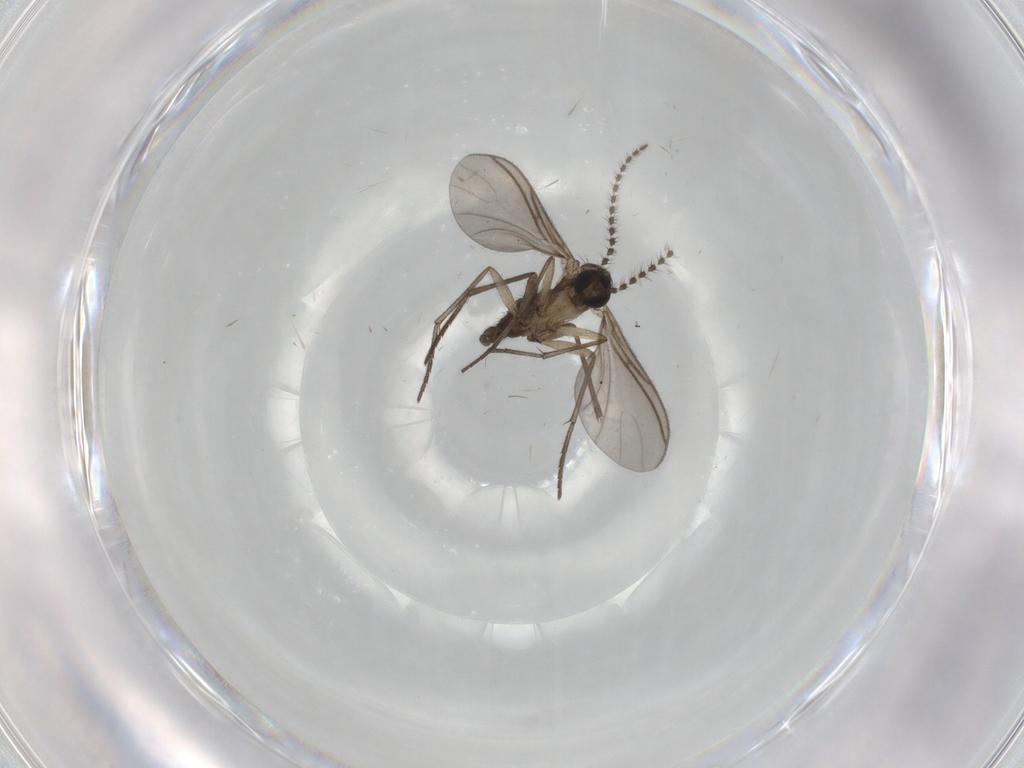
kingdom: Animalia
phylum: Arthropoda
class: Insecta
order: Diptera
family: Sciaridae
